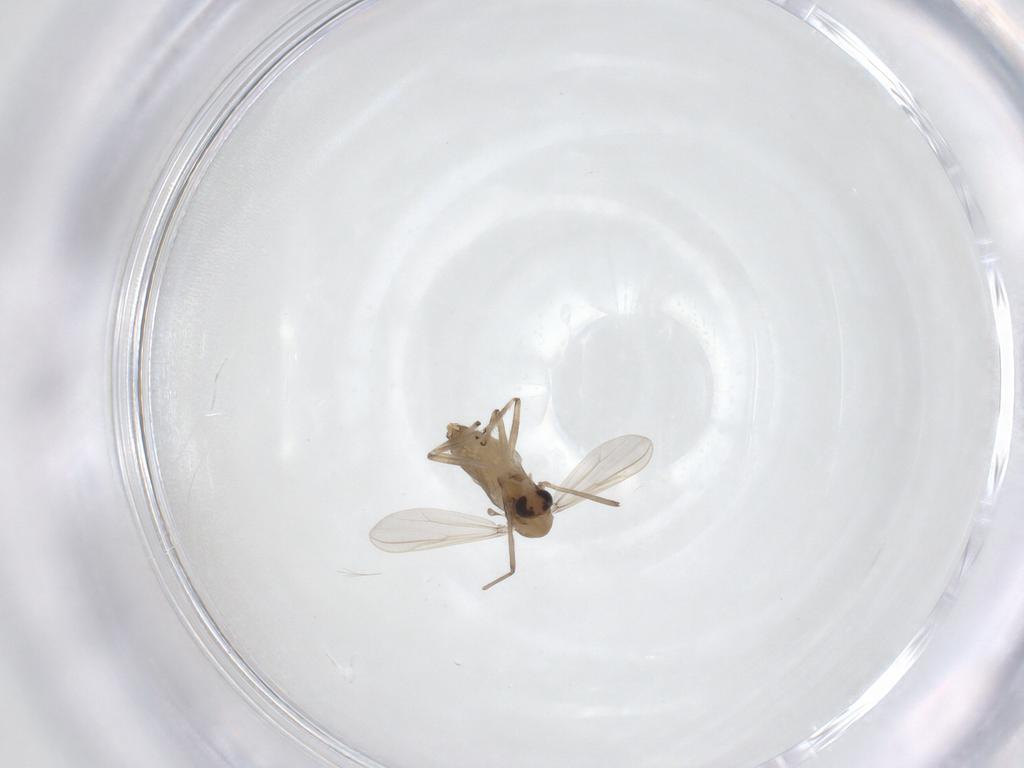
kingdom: Animalia
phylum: Arthropoda
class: Insecta
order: Diptera
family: Chironomidae
